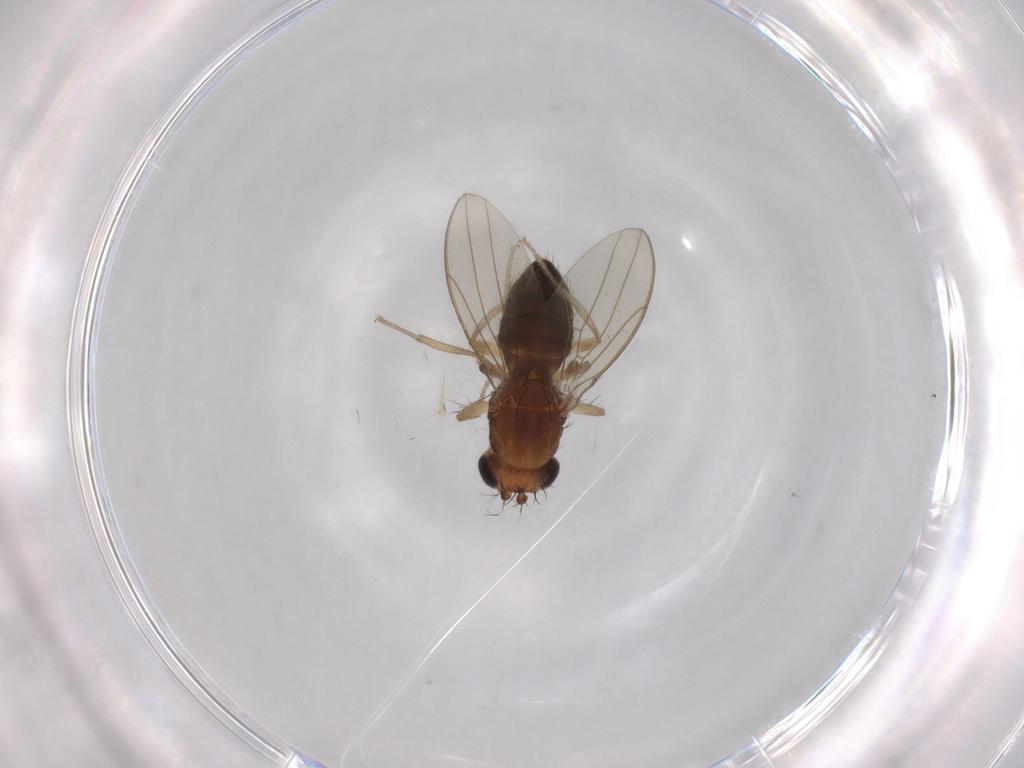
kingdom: Animalia
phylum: Arthropoda
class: Insecta
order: Diptera
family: Drosophilidae
